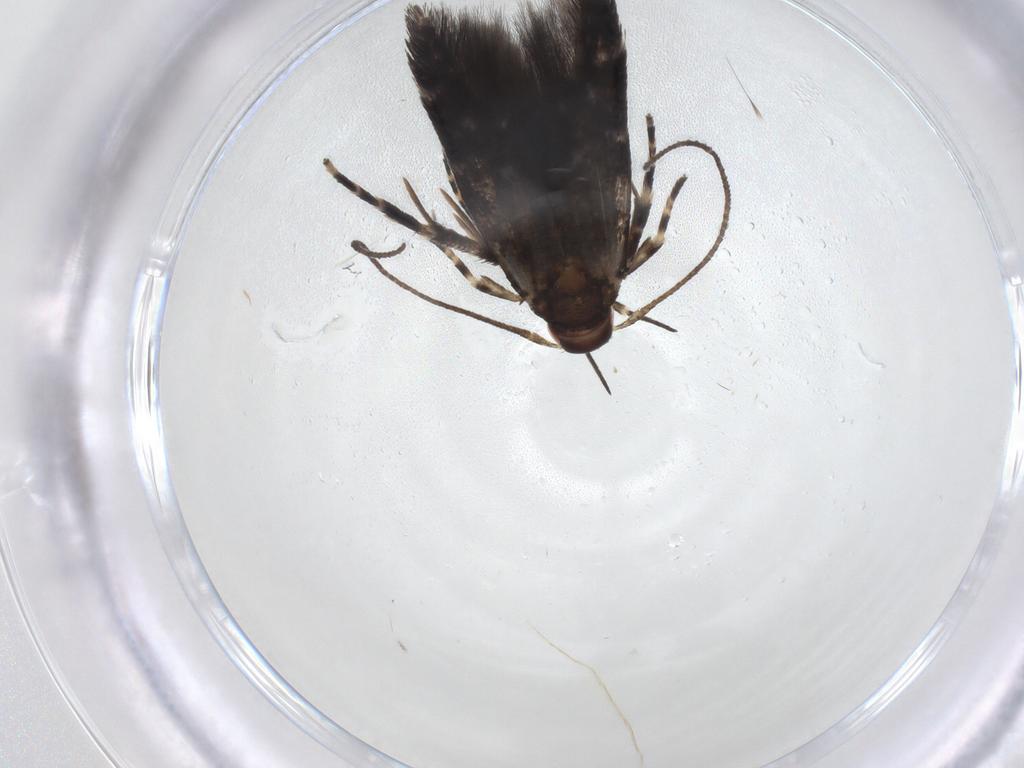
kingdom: Animalia
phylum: Arthropoda
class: Insecta
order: Lepidoptera
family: Cosmopterigidae
